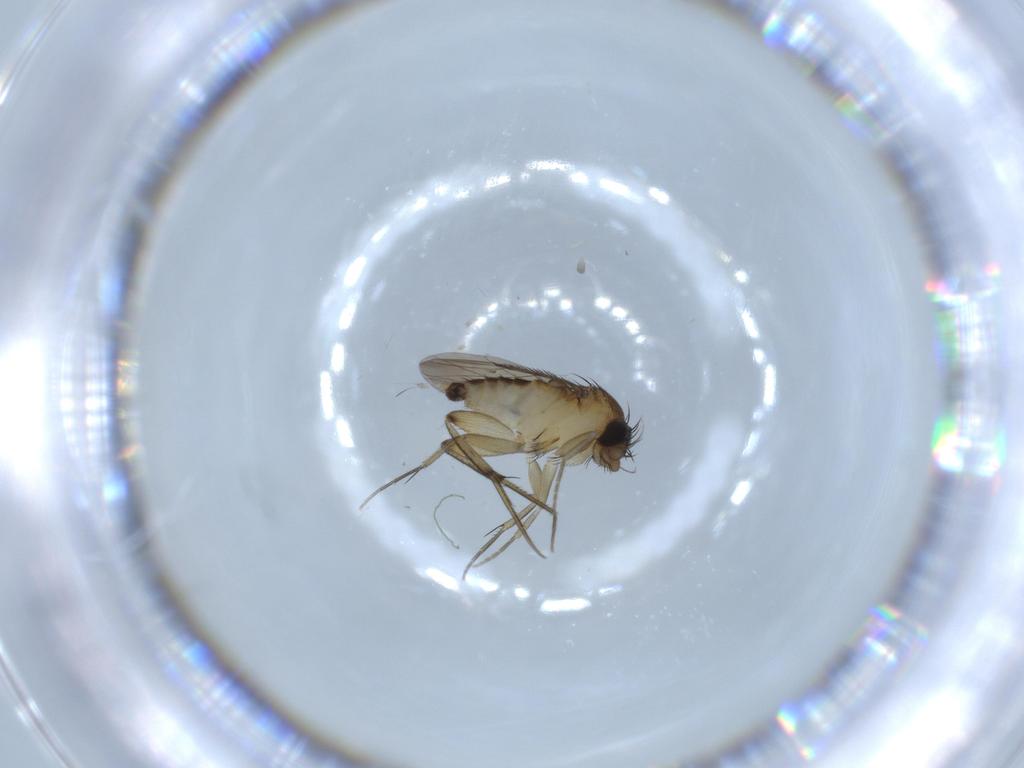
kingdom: Animalia
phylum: Arthropoda
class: Insecta
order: Diptera
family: Phoridae
